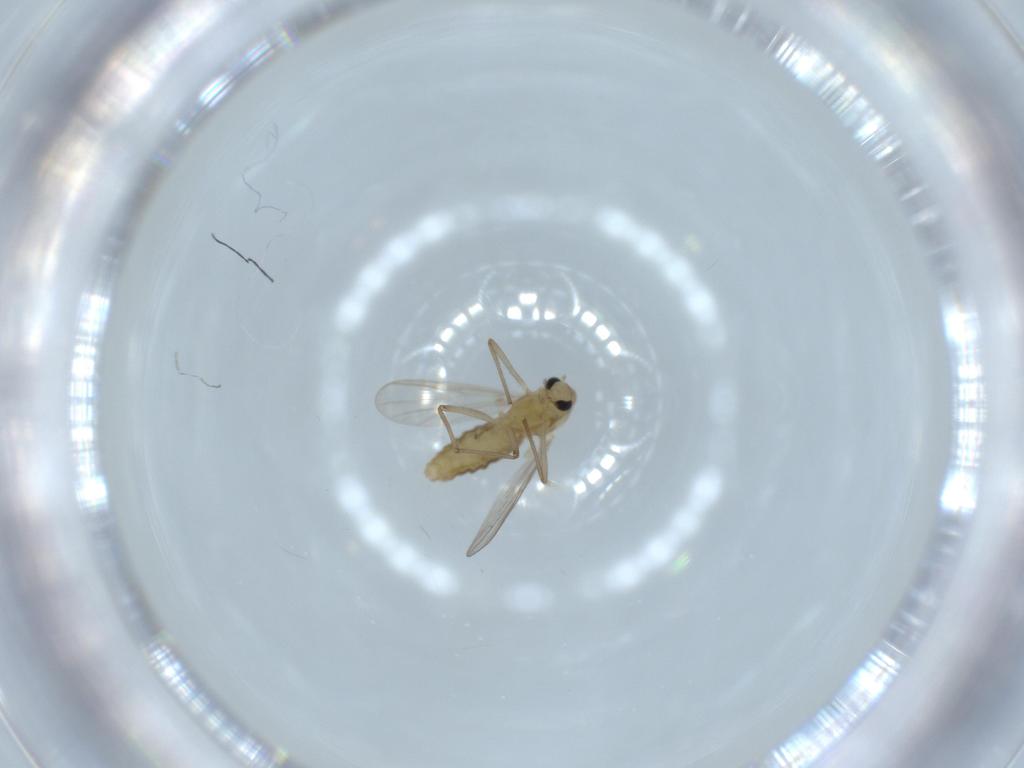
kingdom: Animalia
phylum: Arthropoda
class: Insecta
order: Diptera
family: Chironomidae
